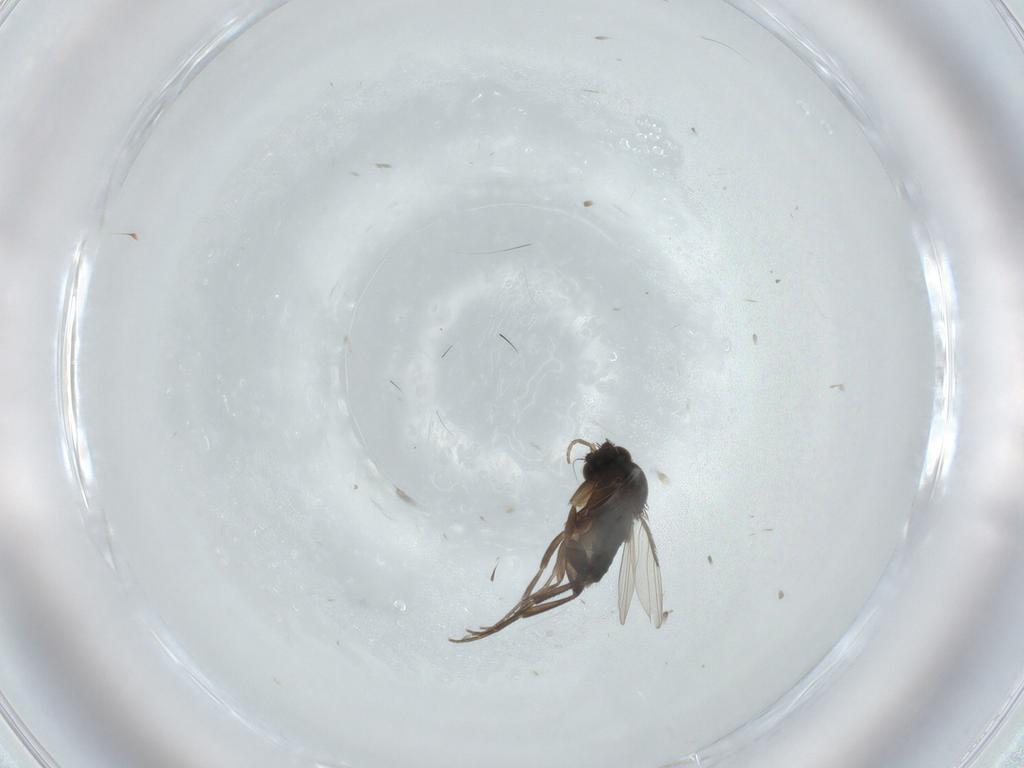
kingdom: Animalia
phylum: Arthropoda
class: Insecta
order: Diptera
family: Phoridae
